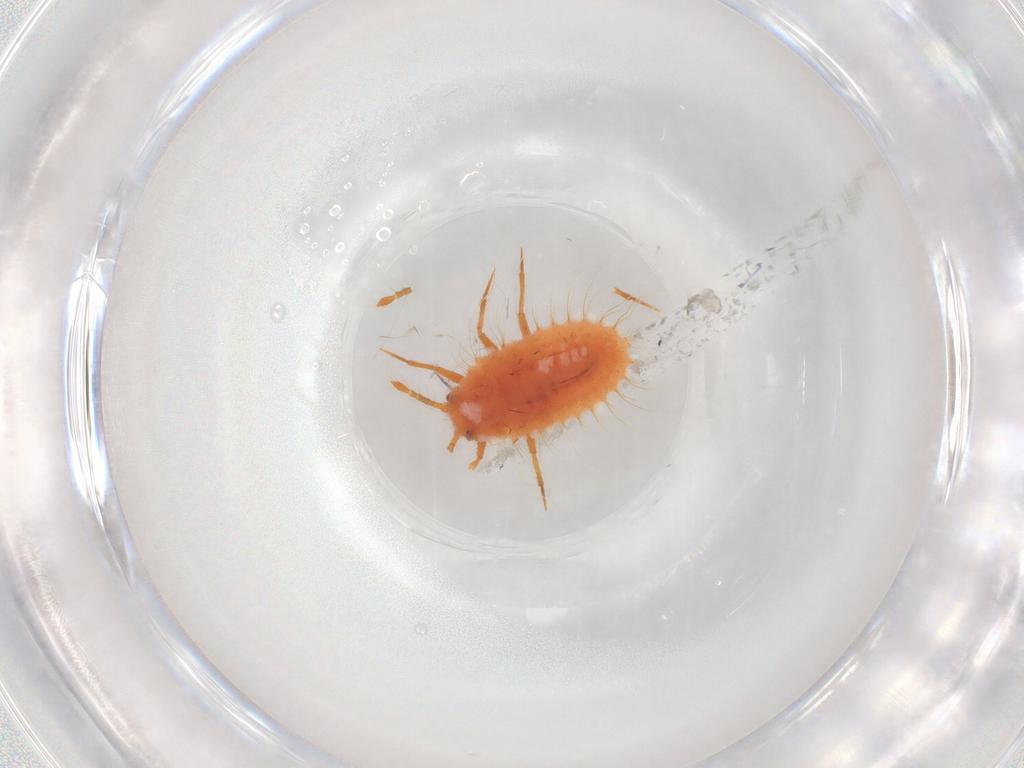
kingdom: Animalia
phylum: Arthropoda
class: Insecta
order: Hemiptera
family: Coccoidea_incertae_sedis
